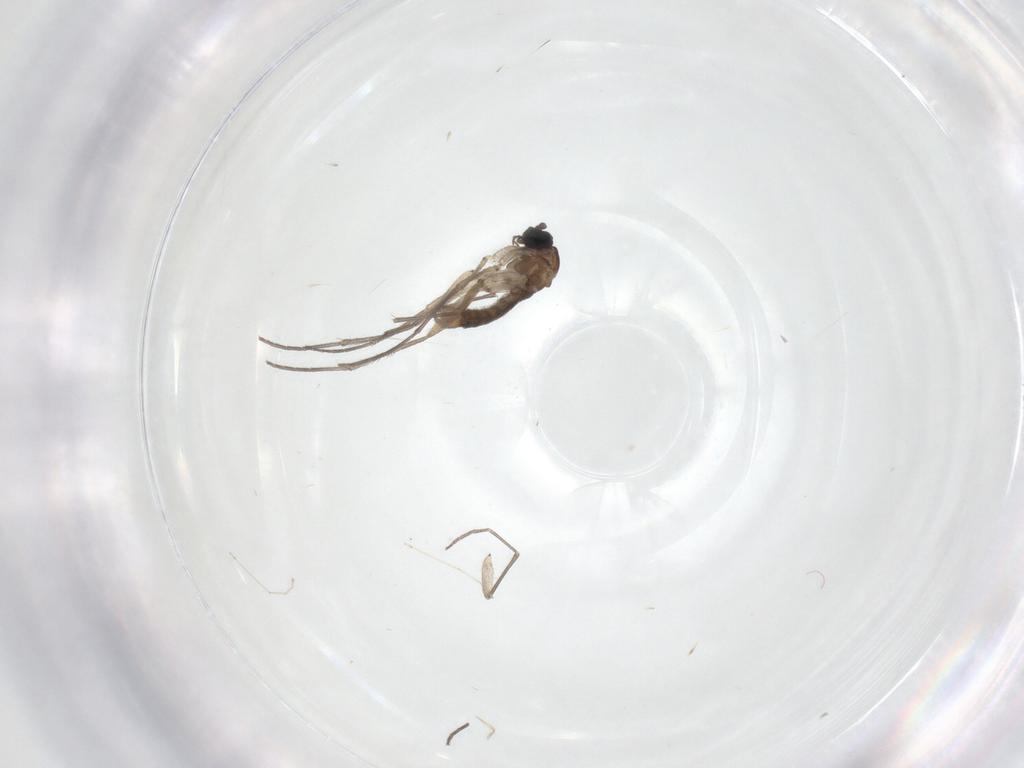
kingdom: Animalia
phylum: Arthropoda
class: Insecta
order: Diptera
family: Sciaridae
